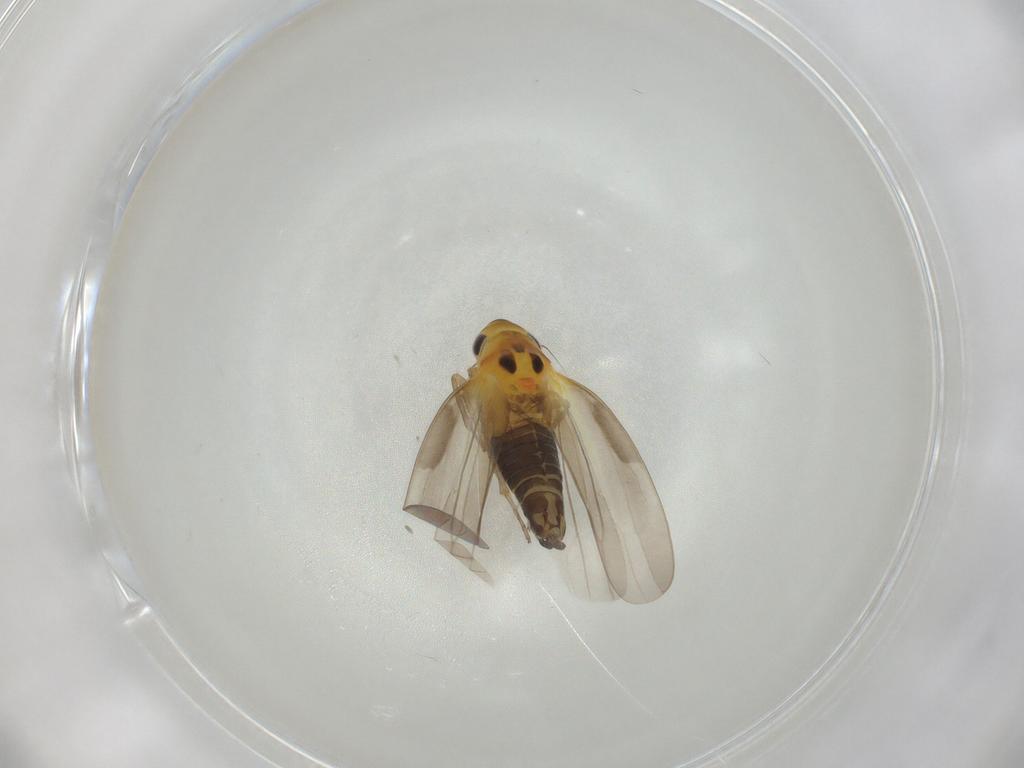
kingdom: Animalia
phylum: Arthropoda
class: Insecta
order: Hemiptera
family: Cicadellidae
